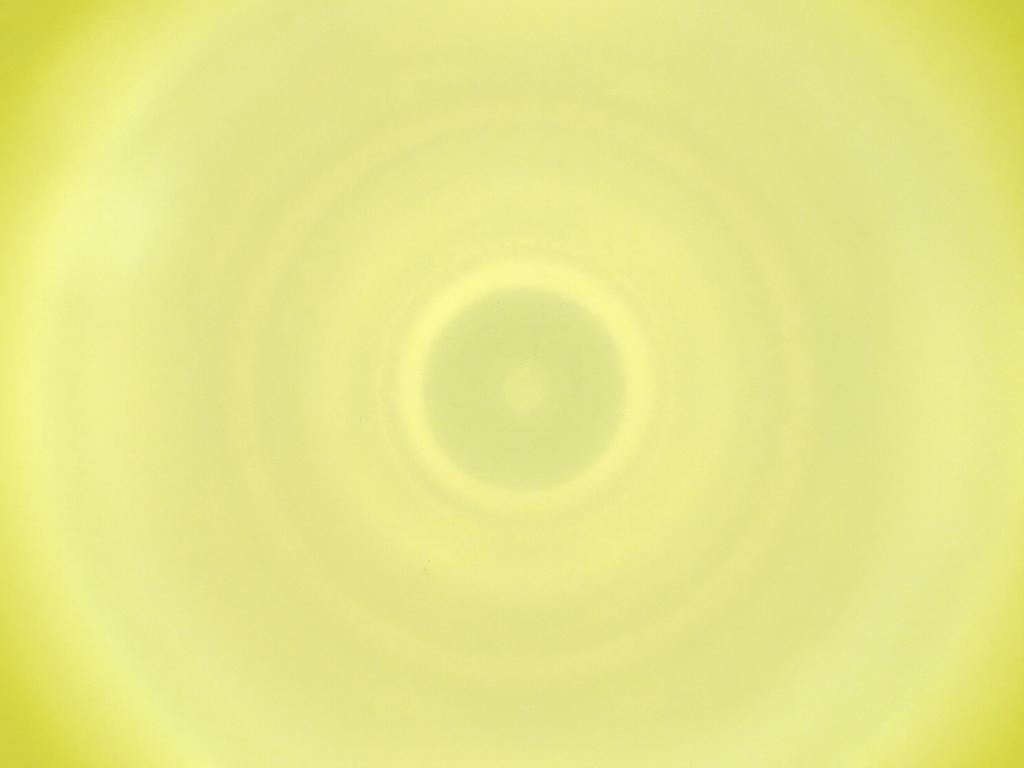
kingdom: Animalia
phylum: Arthropoda
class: Insecta
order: Diptera
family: Cecidomyiidae
